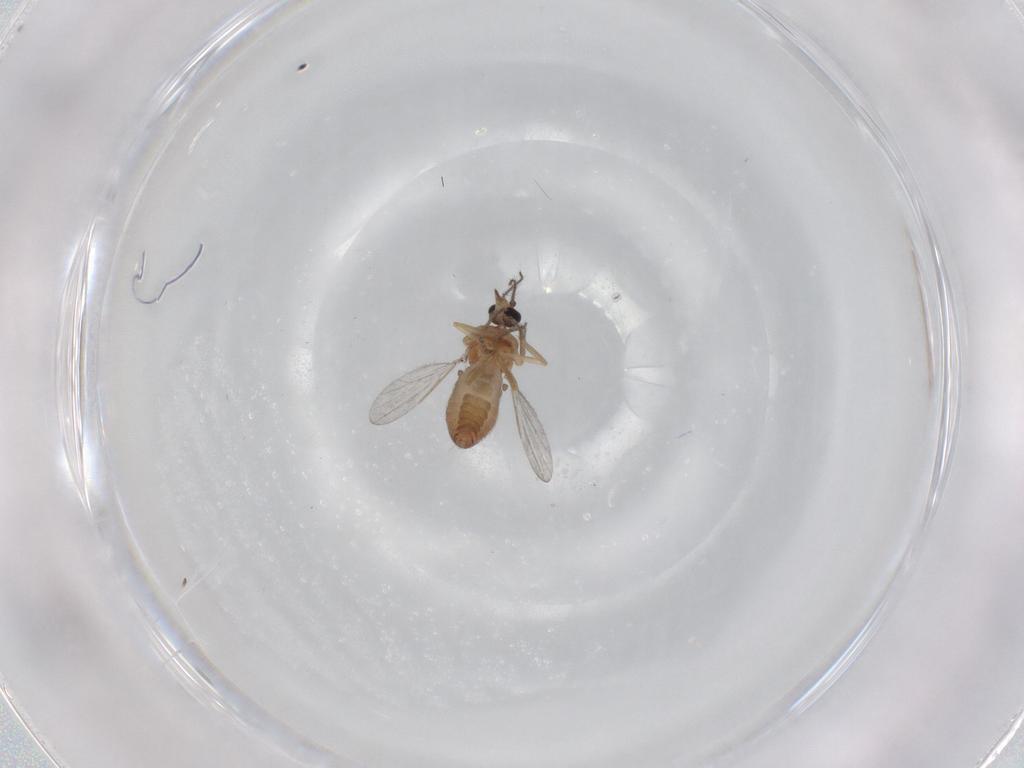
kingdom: Animalia
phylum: Arthropoda
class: Insecta
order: Diptera
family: Ceratopogonidae
